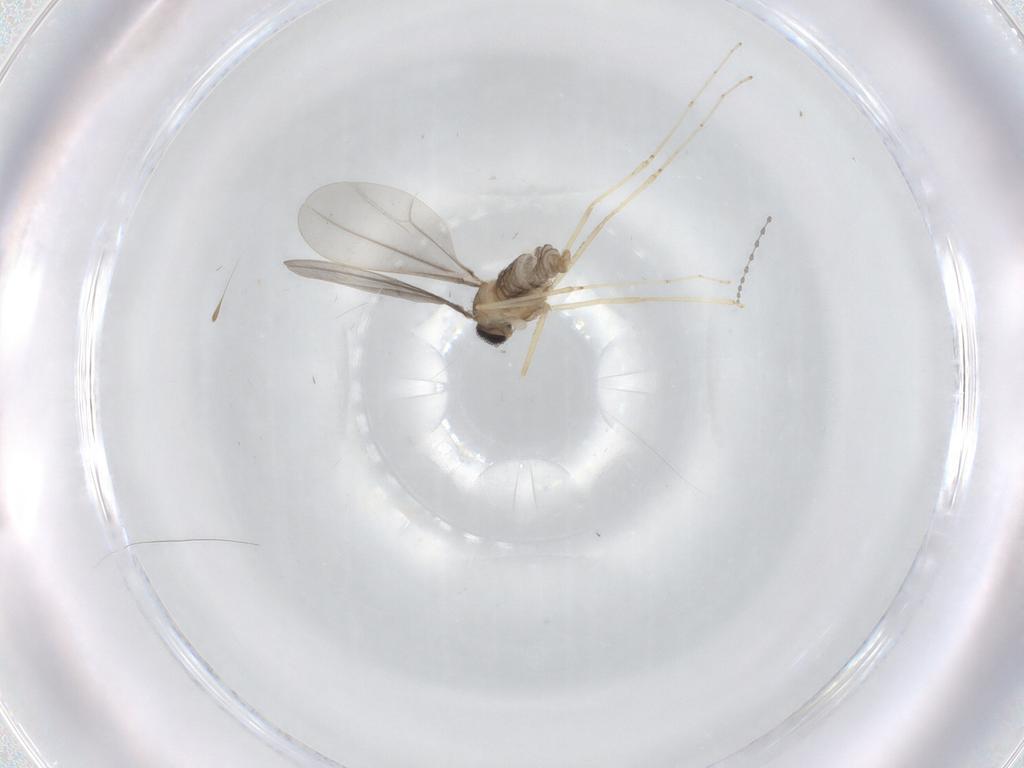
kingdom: Animalia
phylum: Arthropoda
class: Insecta
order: Diptera
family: Cecidomyiidae
